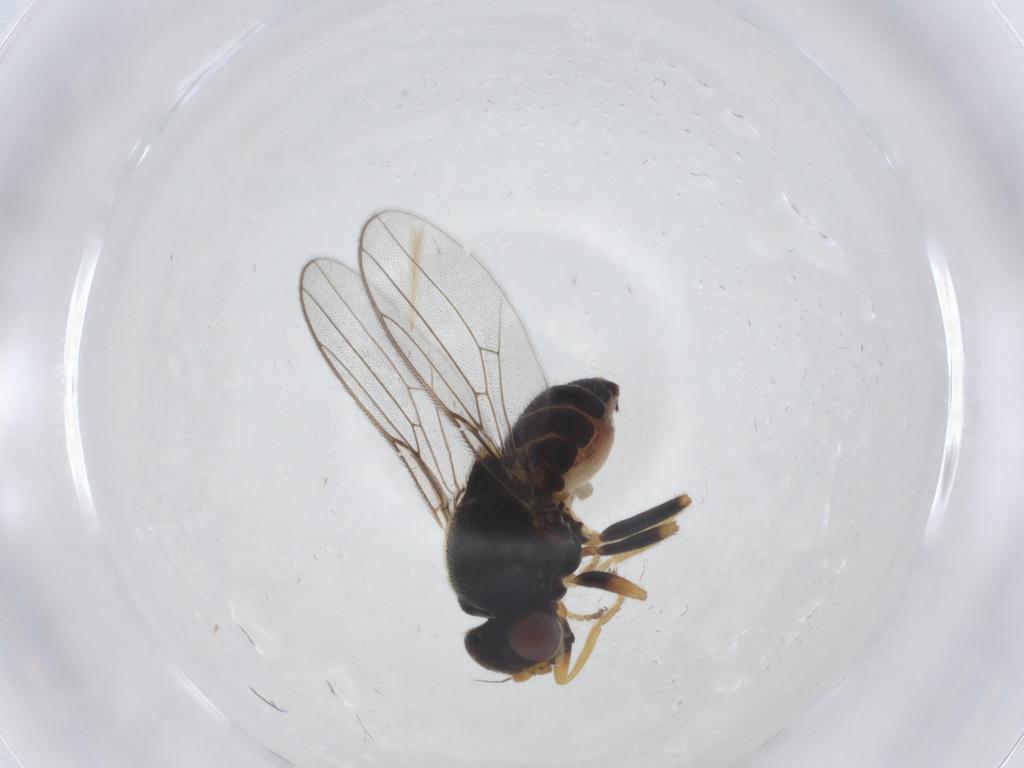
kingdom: Animalia
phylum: Arthropoda
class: Insecta
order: Diptera
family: Chloropidae
